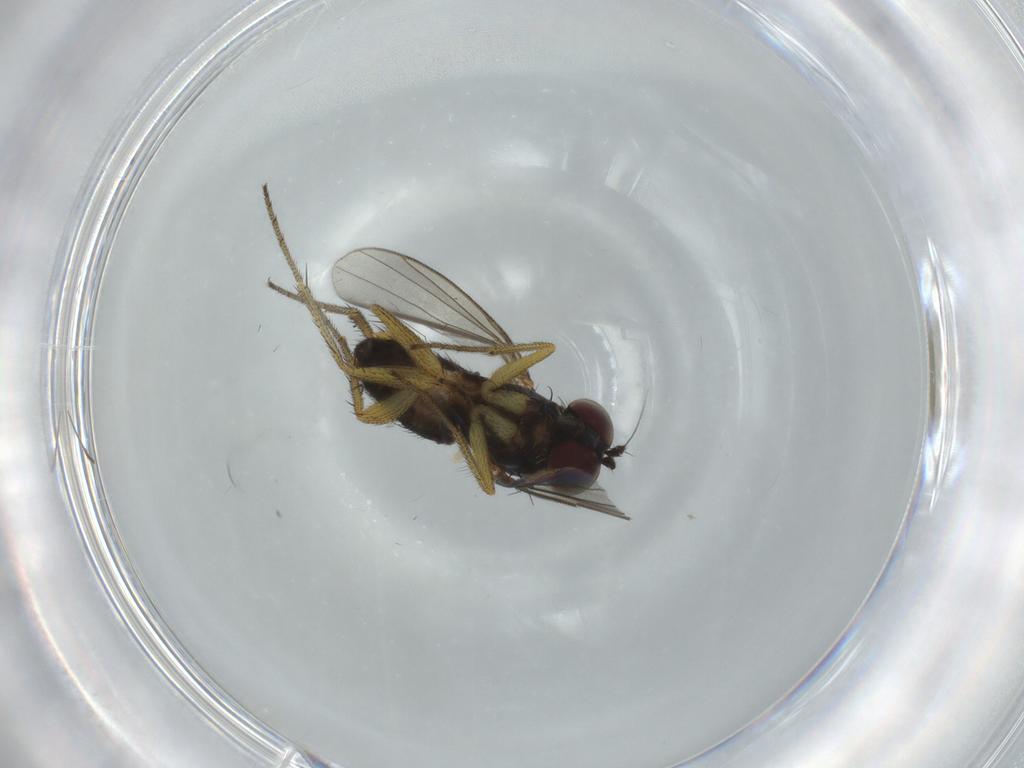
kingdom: Animalia
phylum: Arthropoda
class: Insecta
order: Diptera
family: Dolichopodidae
